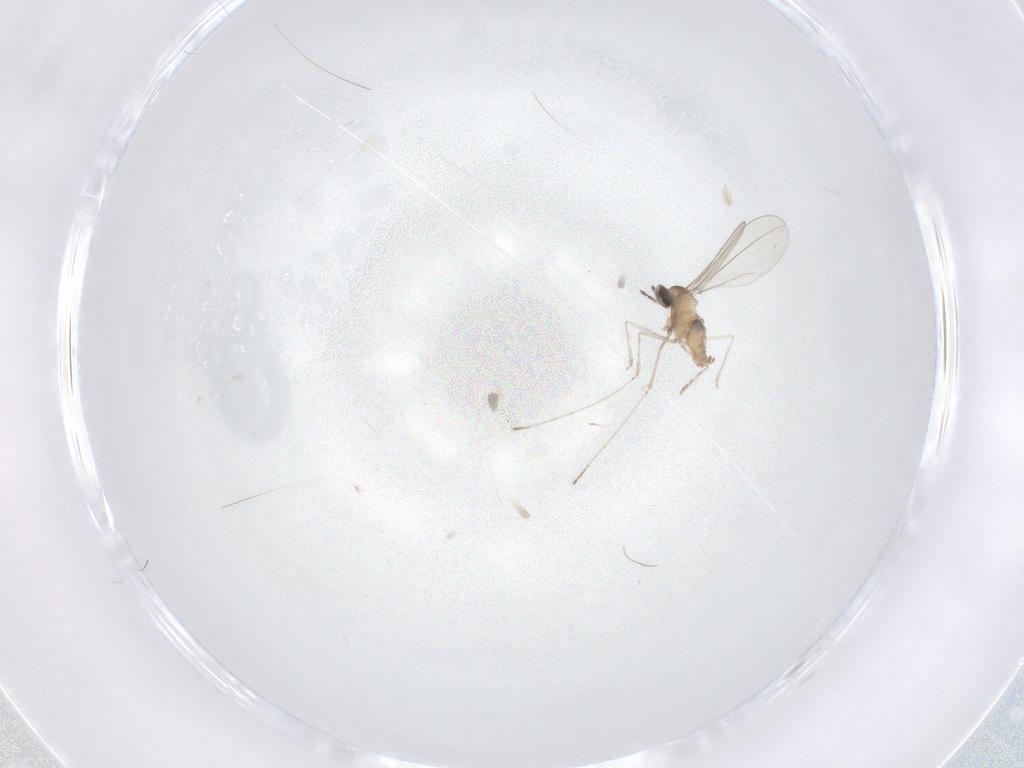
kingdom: Animalia
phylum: Arthropoda
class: Insecta
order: Diptera
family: Cecidomyiidae
